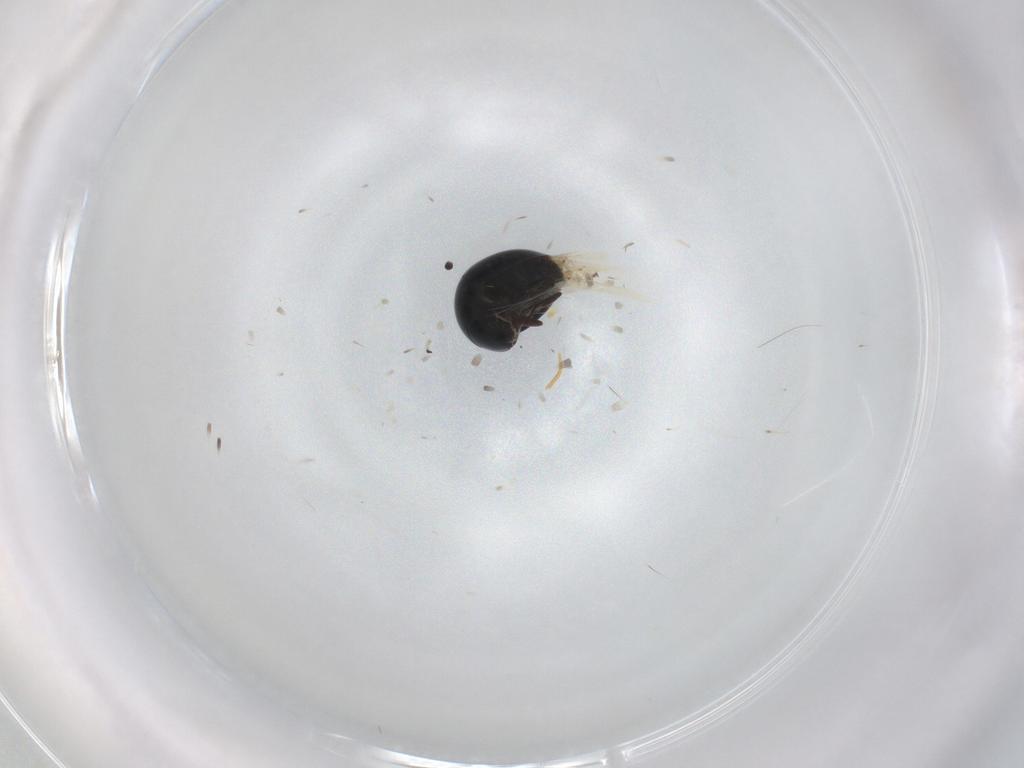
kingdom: Animalia
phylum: Arthropoda
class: Insecta
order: Coleoptera
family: Cybocephalidae
